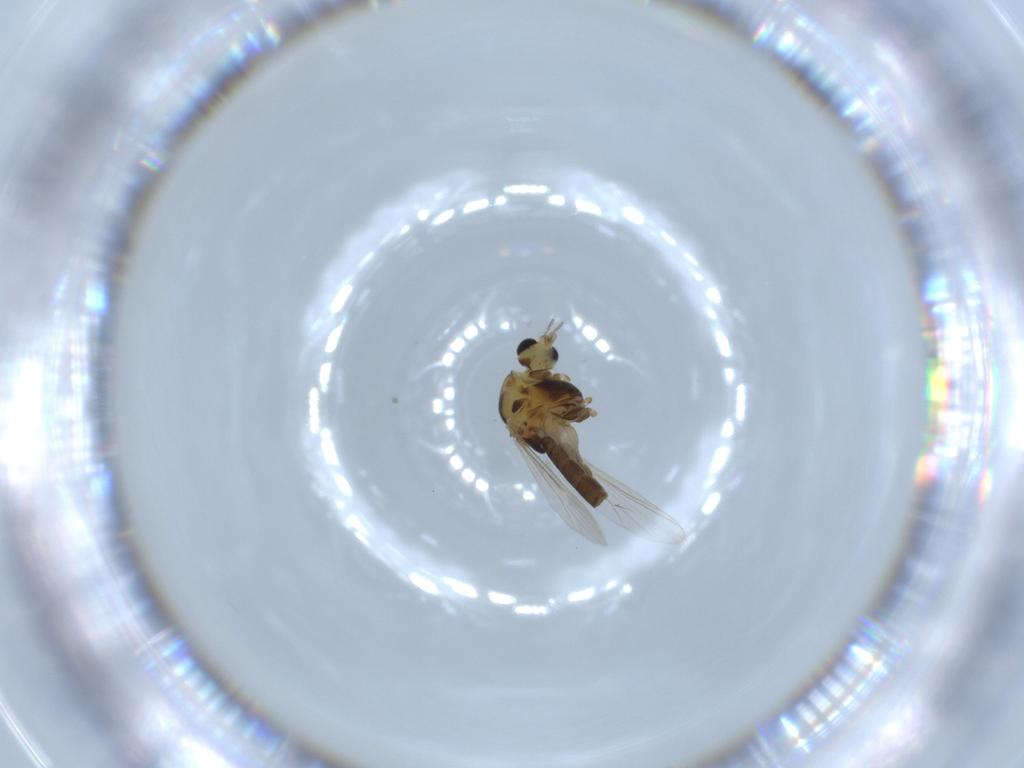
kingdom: Animalia
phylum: Arthropoda
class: Insecta
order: Diptera
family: Chironomidae
